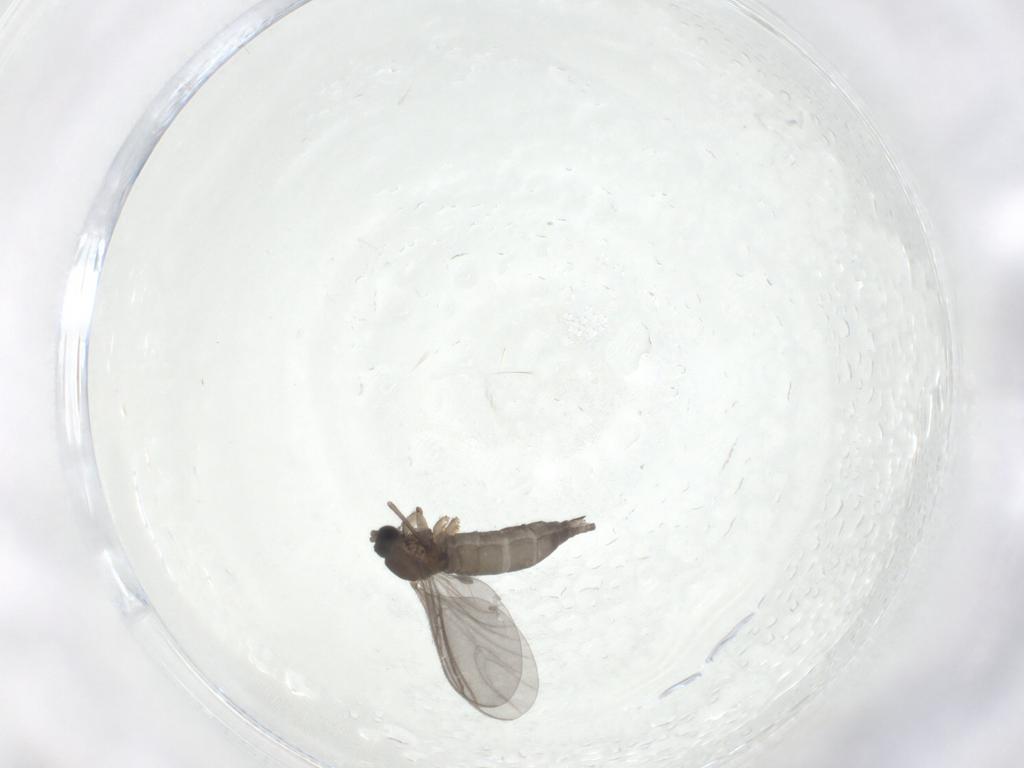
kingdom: Animalia
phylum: Arthropoda
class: Insecta
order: Diptera
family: Sciaridae
